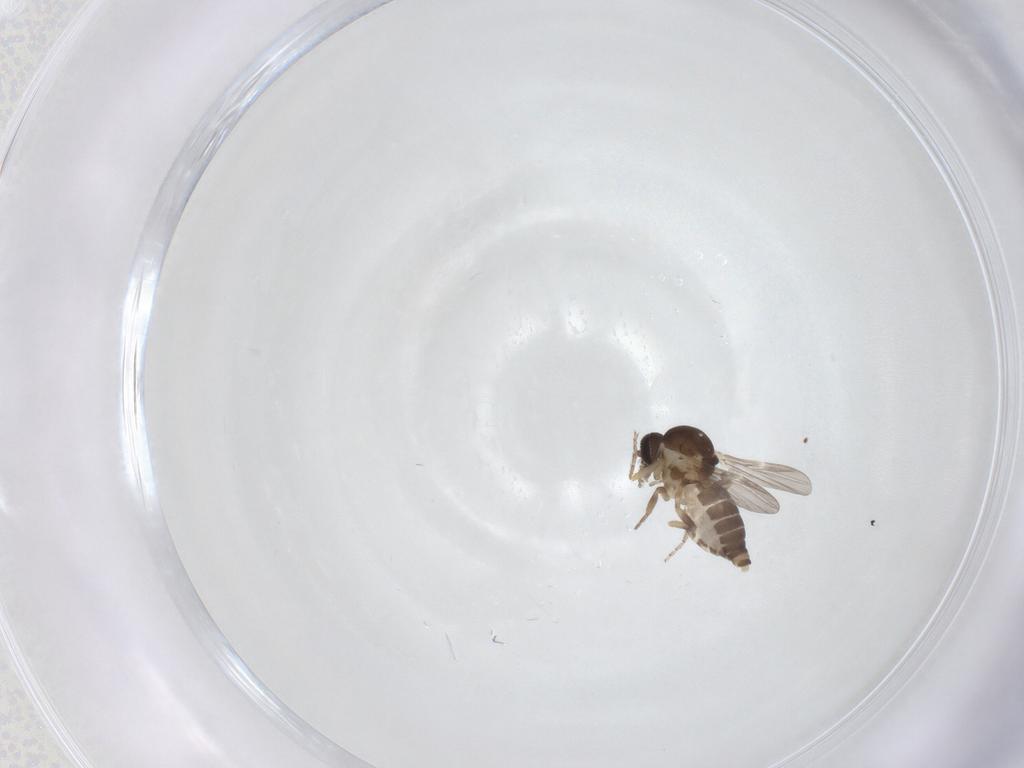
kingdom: Animalia
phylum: Arthropoda
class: Insecta
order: Diptera
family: Ceratopogonidae
